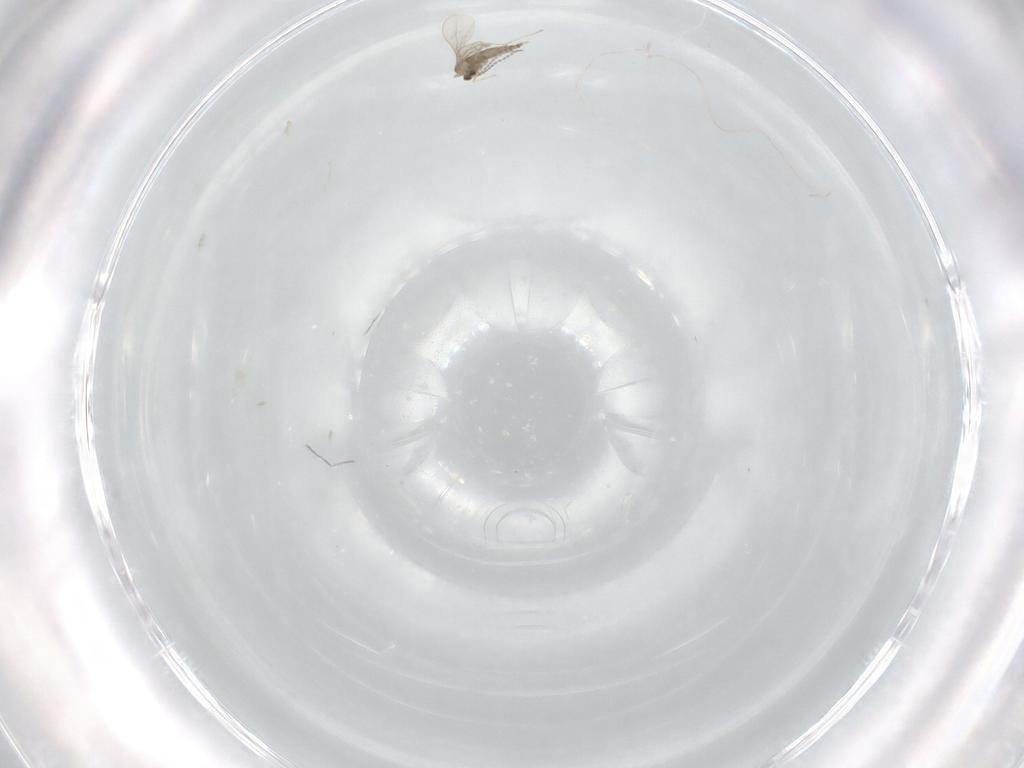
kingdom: Animalia
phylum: Arthropoda
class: Insecta
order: Diptera
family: Cecidomyiidae
